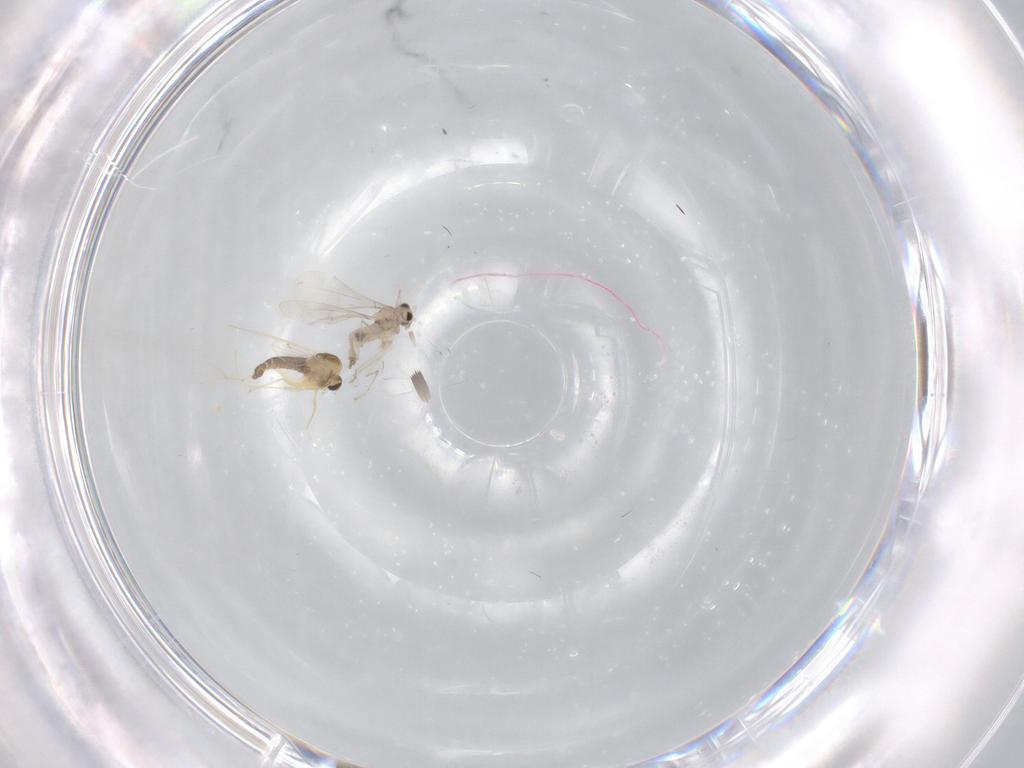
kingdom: Animalia
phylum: Arthropoda
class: Insecta
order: Diptera
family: Chironomidae
